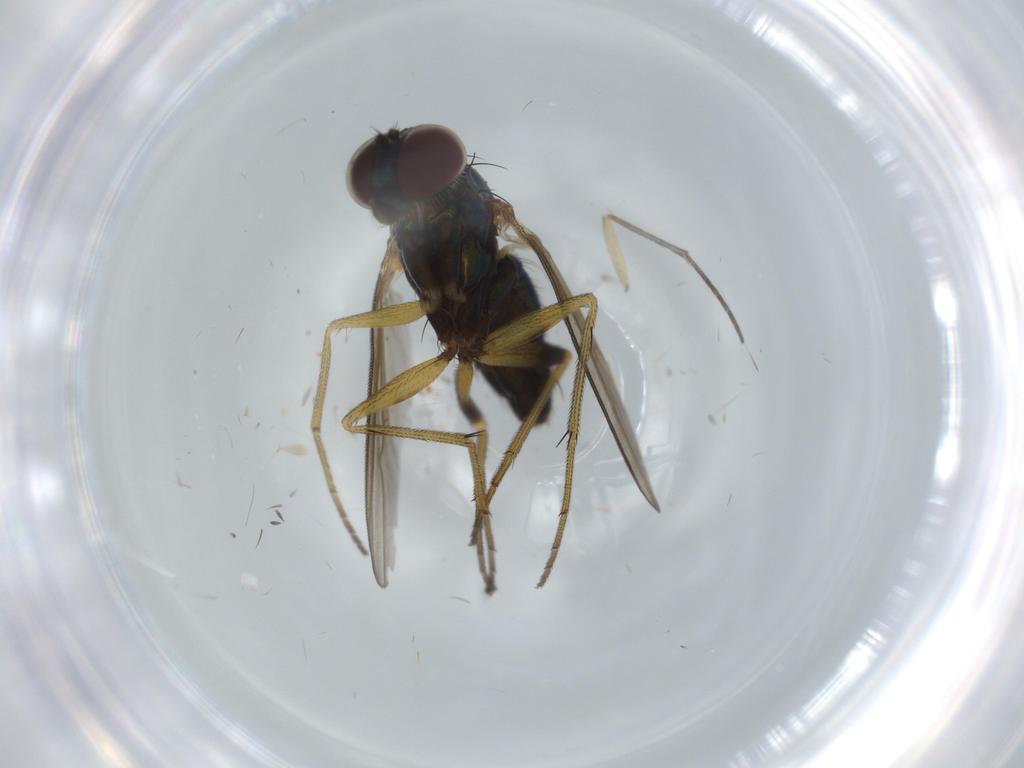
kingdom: Animalia
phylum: Arthropoda
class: Insecta
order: Diptera
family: Dolichopodidae
